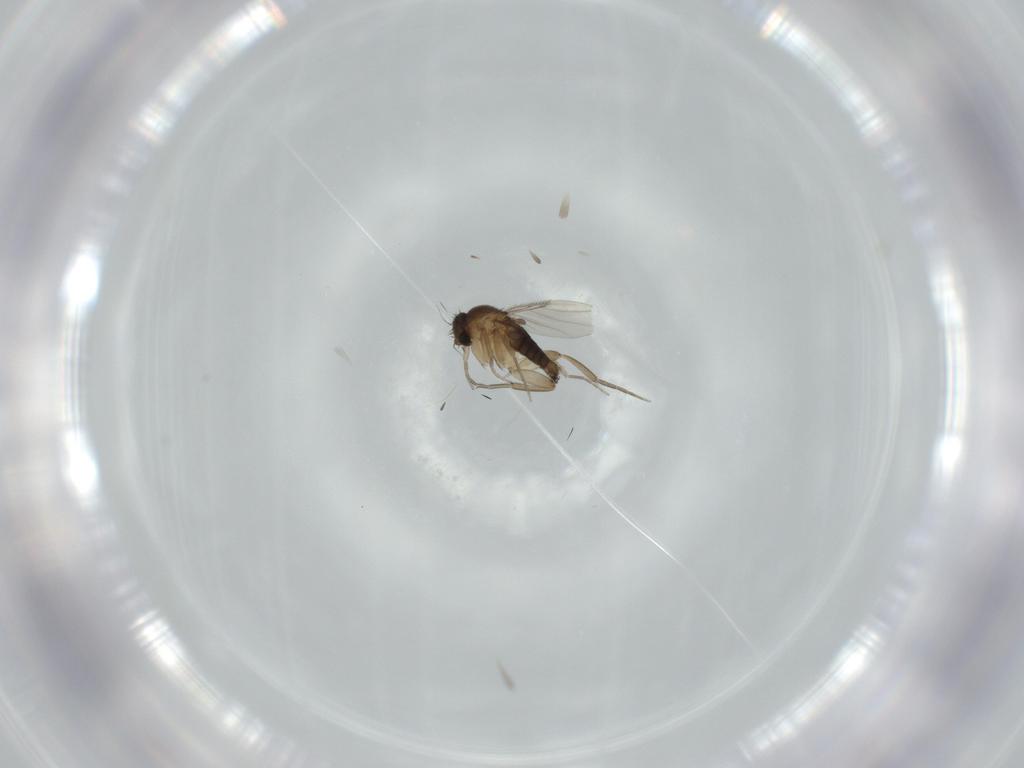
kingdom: Animalia
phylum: Arthropoda
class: Insecta
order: Diptera
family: Phoridae
